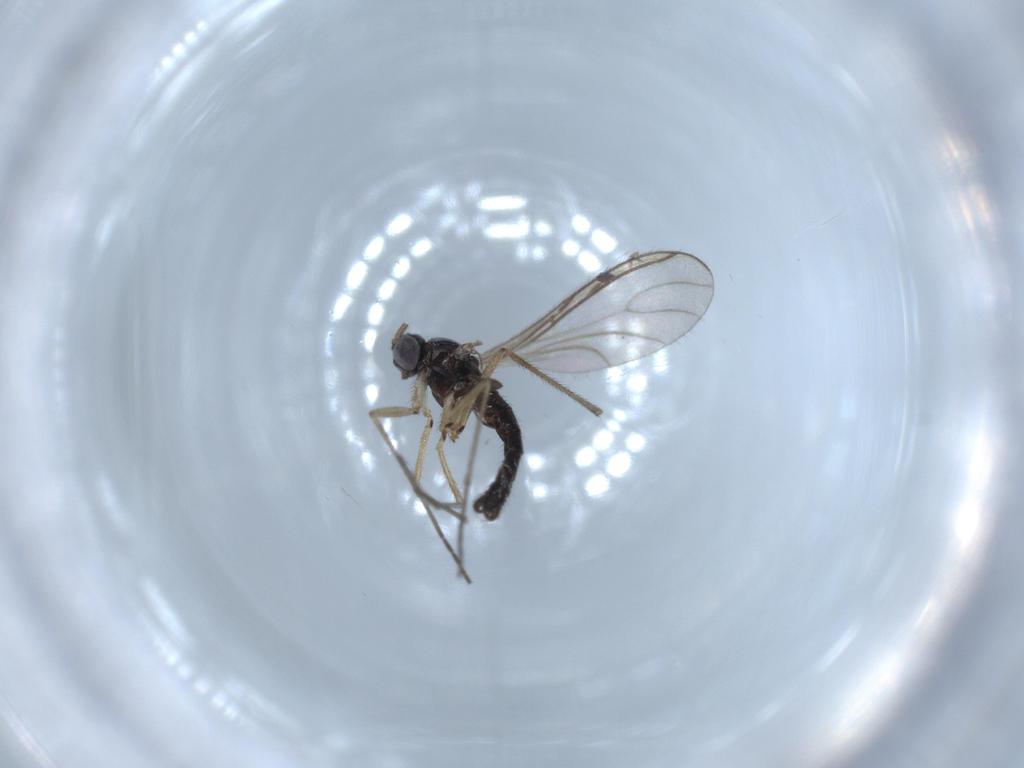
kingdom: Animalia
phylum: Arthropoda
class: Insecta
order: Diptera
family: Sciaridae
